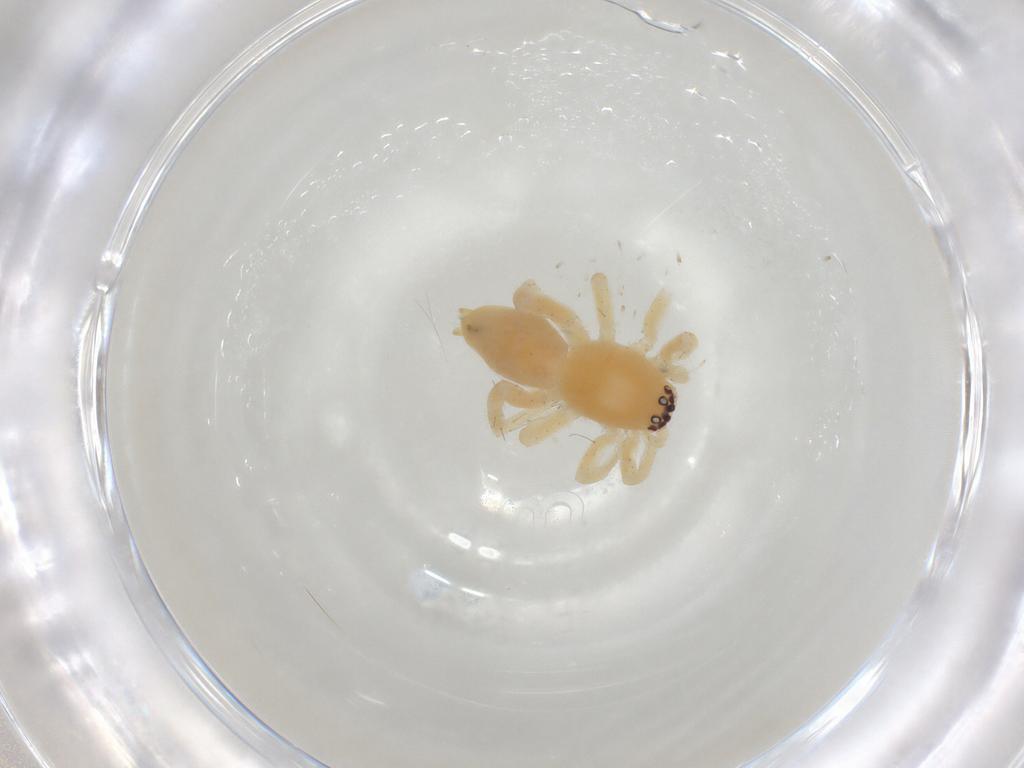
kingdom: Animalia
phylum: Arthropoda
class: Arachnida
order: Araneae
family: Clubionidae
